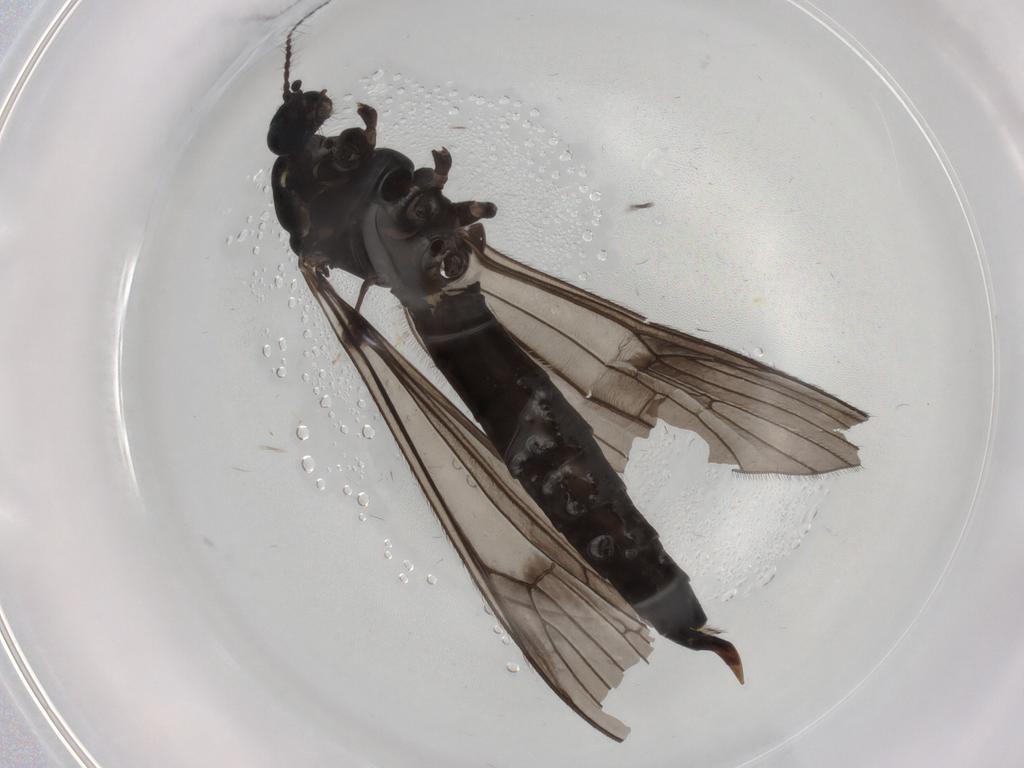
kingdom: Animalia
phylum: Arthropoda
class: Insecta
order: Diptera
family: Limoniidae
